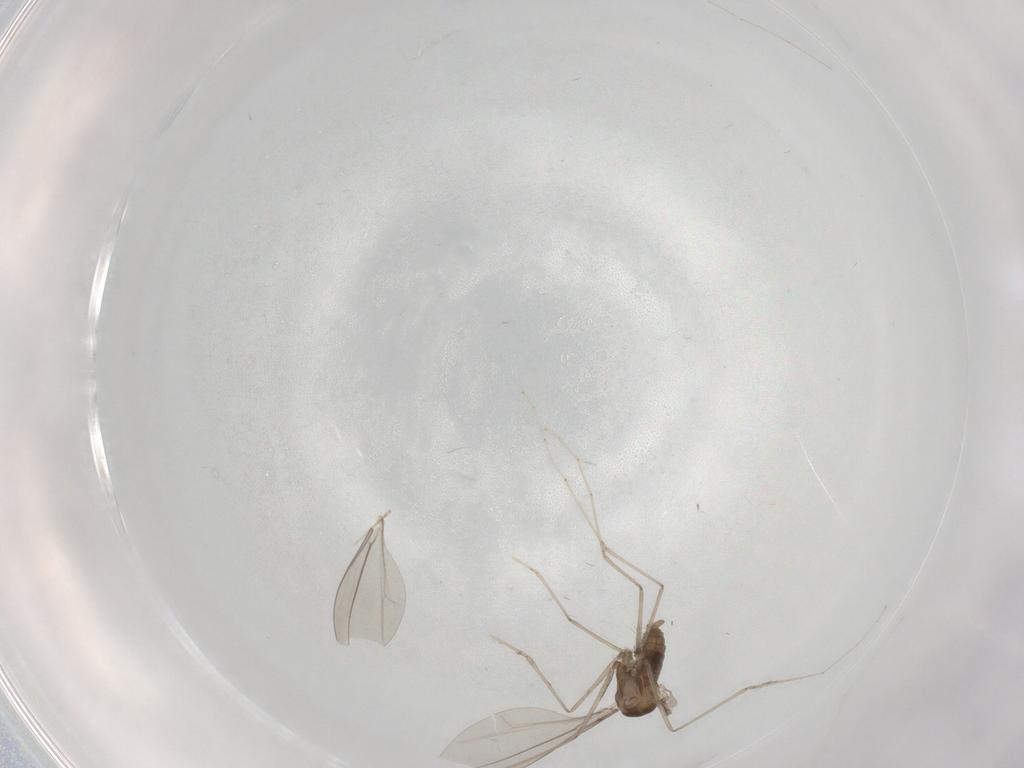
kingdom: Animalia
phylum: Arthropoda
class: Insecta
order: Diptera
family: Cecidomyiidae
